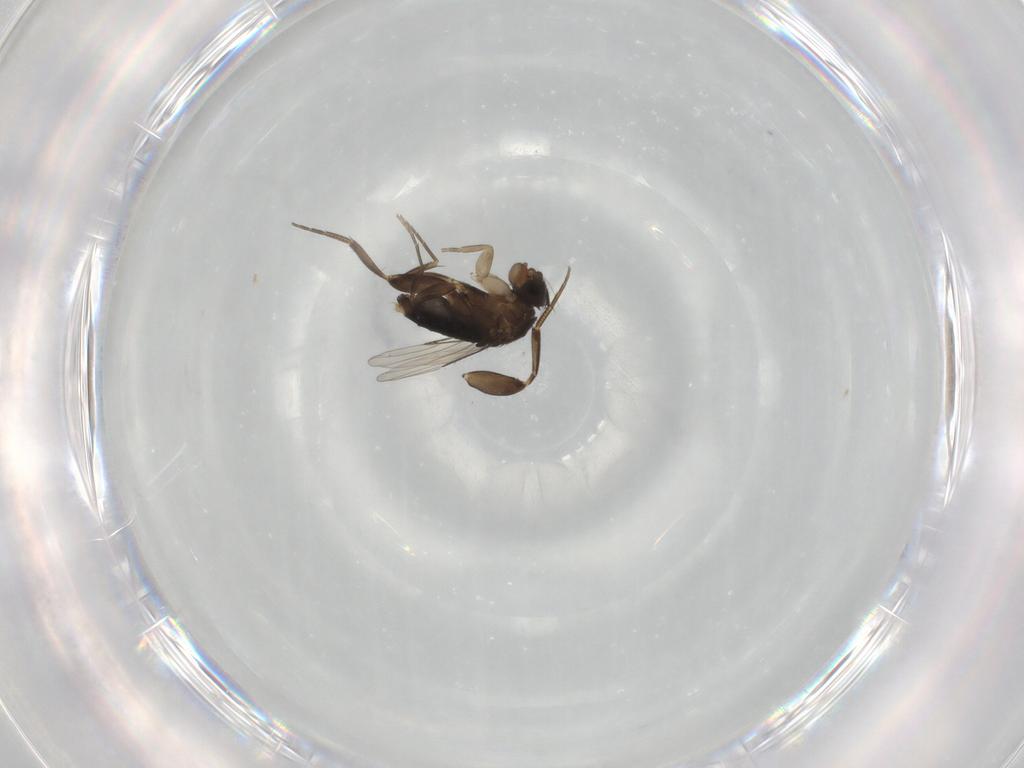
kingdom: Animalia
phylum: Arthropoda
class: Insecta
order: Diptera
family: Phoridae
